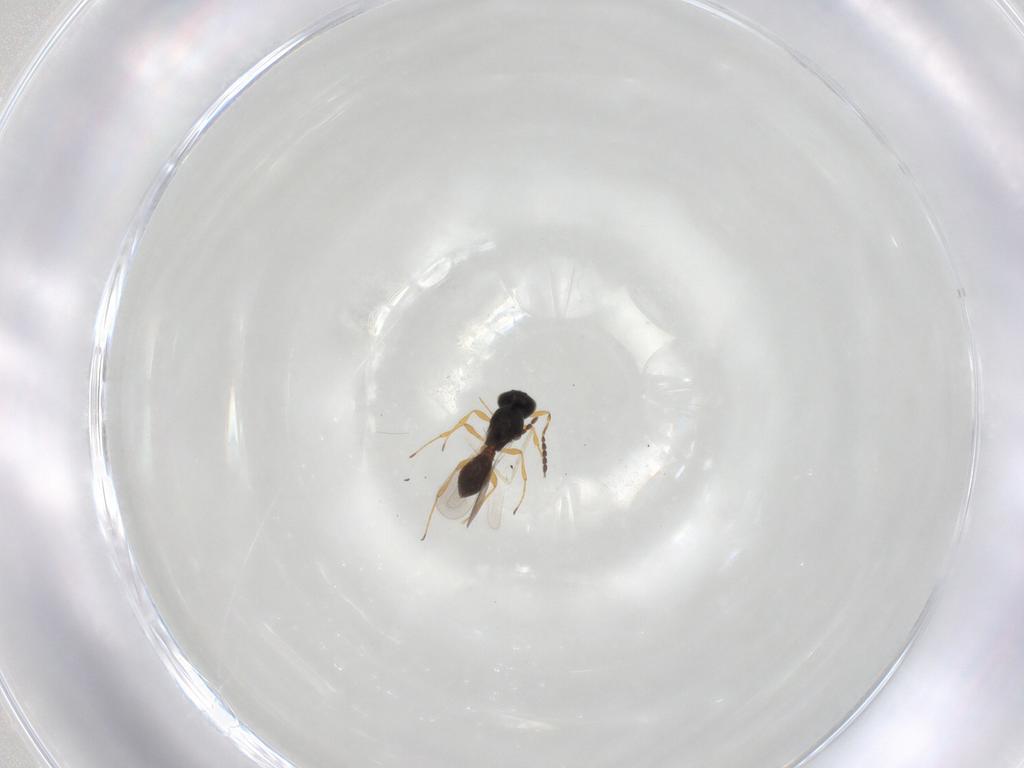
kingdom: Animalia
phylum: Arthropoda
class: Insecta
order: Hymenoptera
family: Platygastridae
